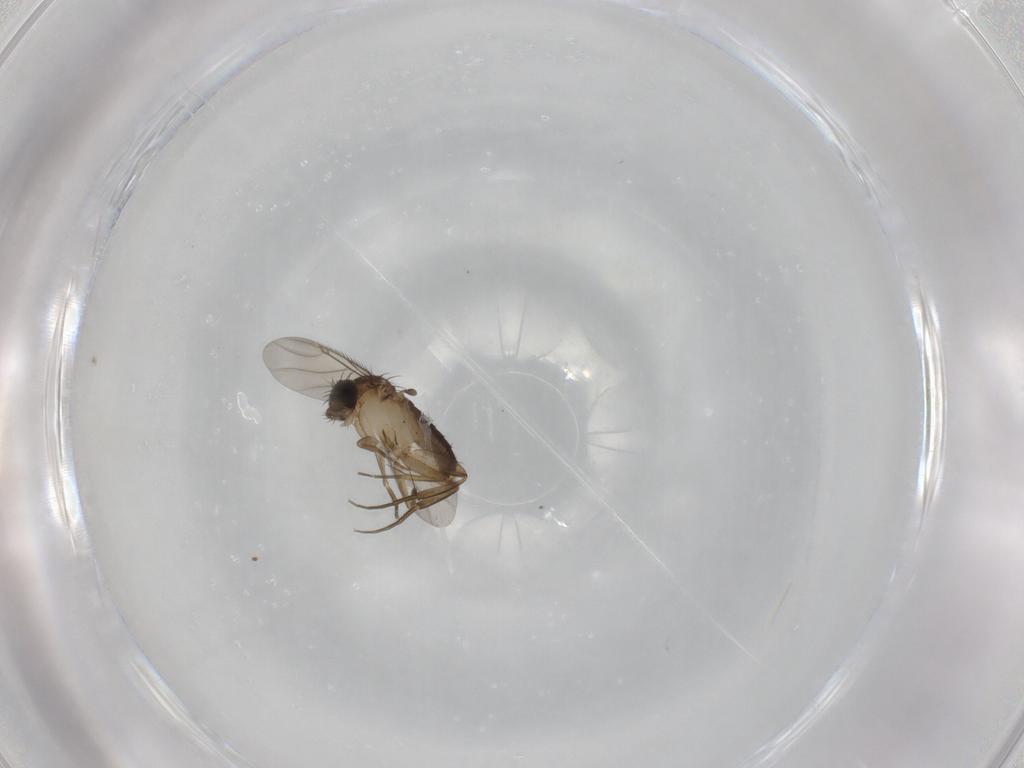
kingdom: Animalia
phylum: Arthropoda
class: Insecta
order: Diptera
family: Phoridae
